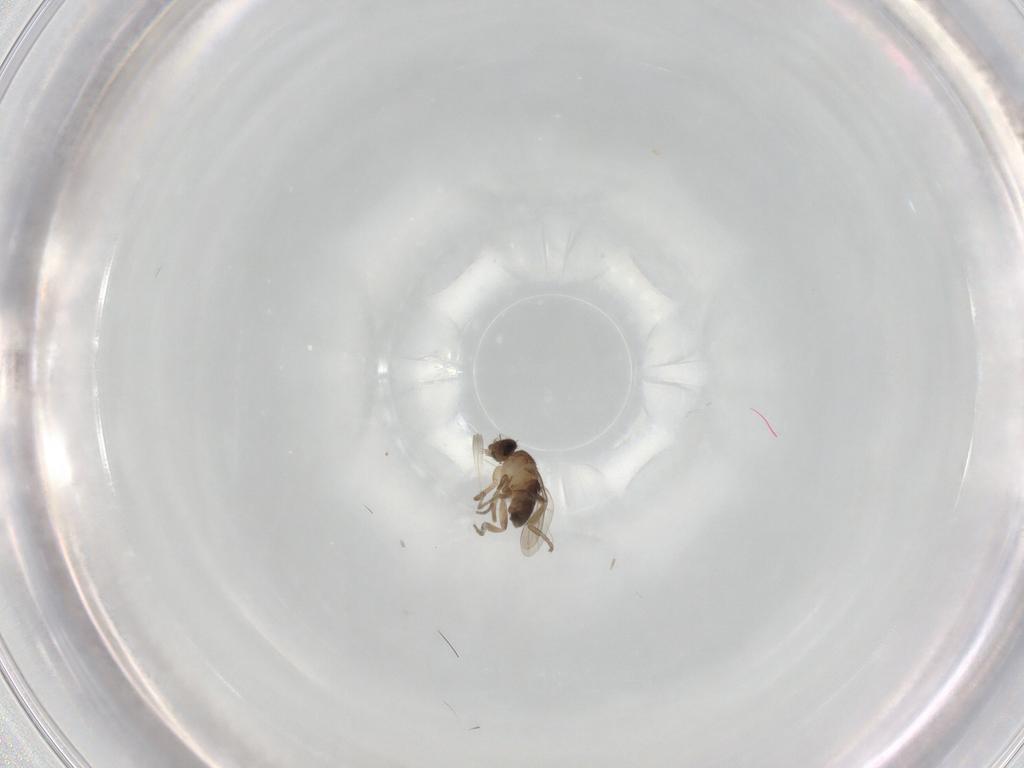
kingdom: Animalia
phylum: Arthropoda
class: Insecta
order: Diptera
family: Phoridae
